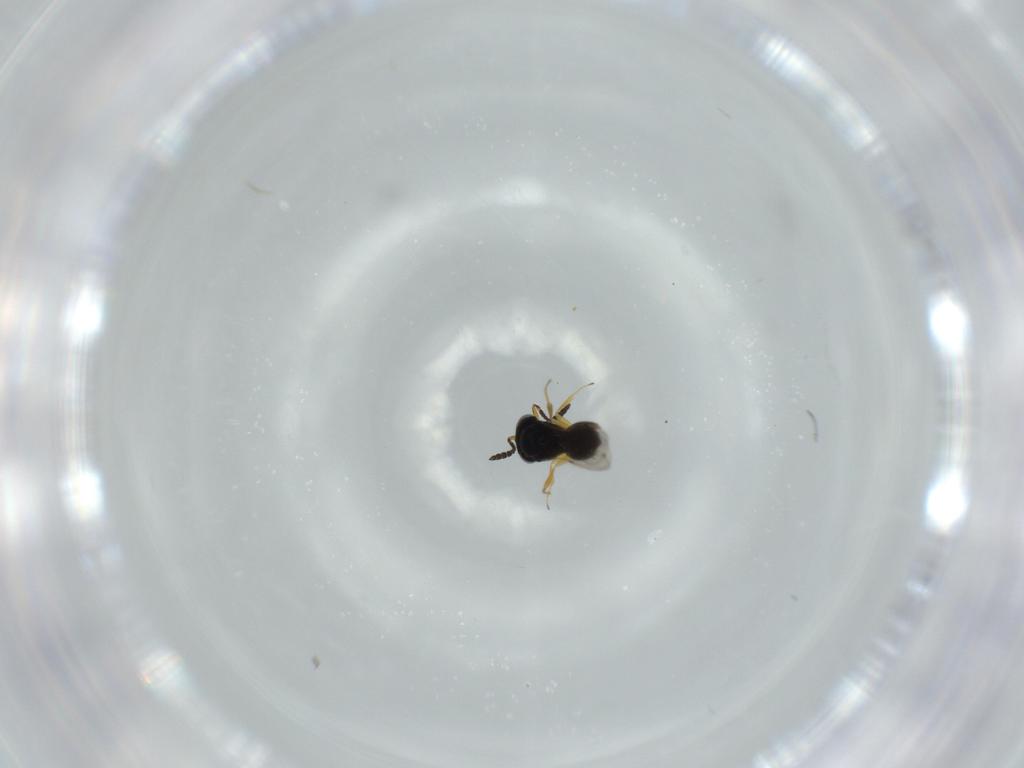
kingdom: Animalia
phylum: Arthropoda
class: Insecta
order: Hymenoptera
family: Scelionidae
